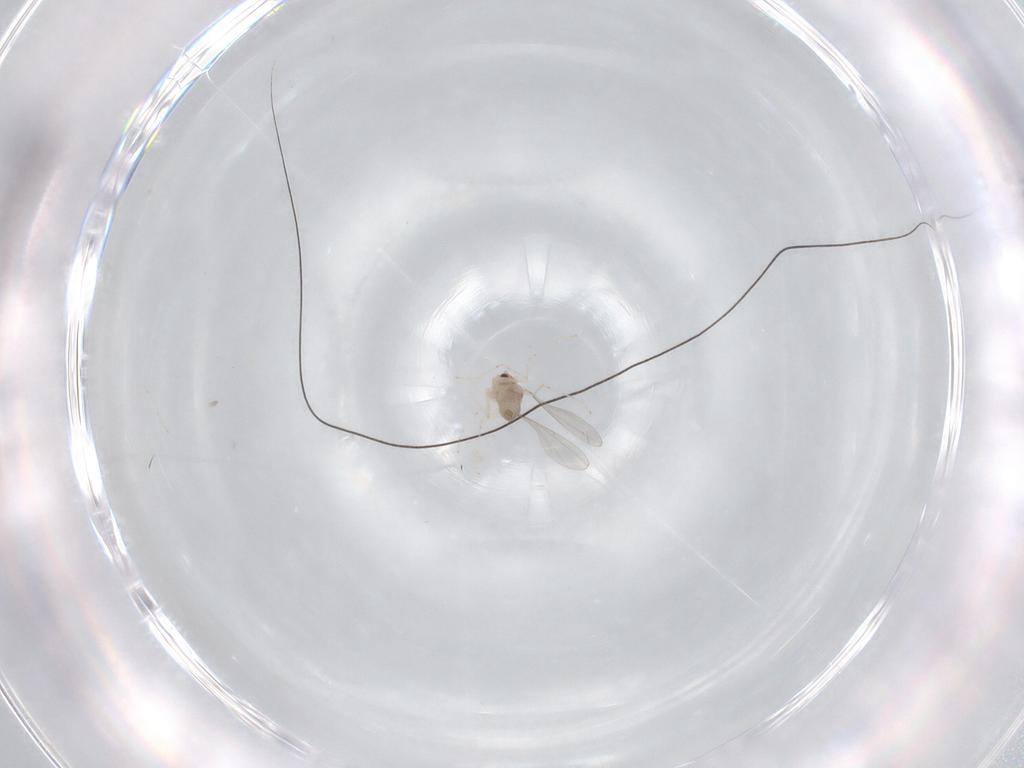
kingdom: Animalia
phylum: Arthropoda
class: Insecta
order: Diptera
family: Cecidomyiidae
